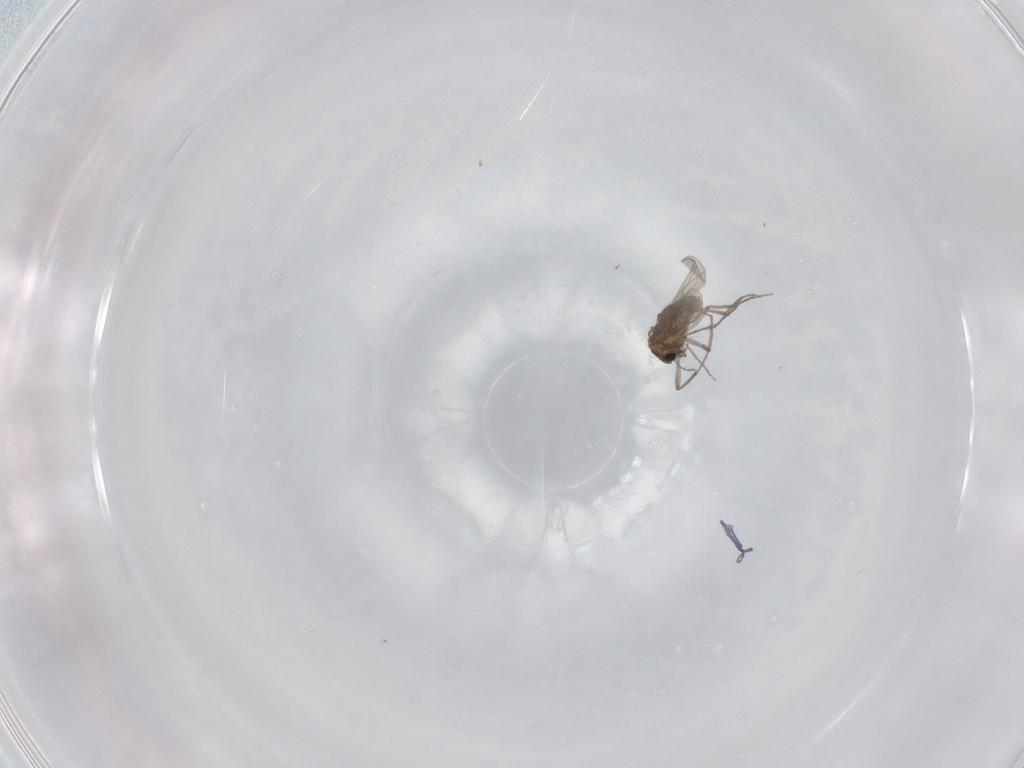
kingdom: Animalia
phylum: Arthropoda
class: Insecta
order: Diptera
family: Chironomidae
